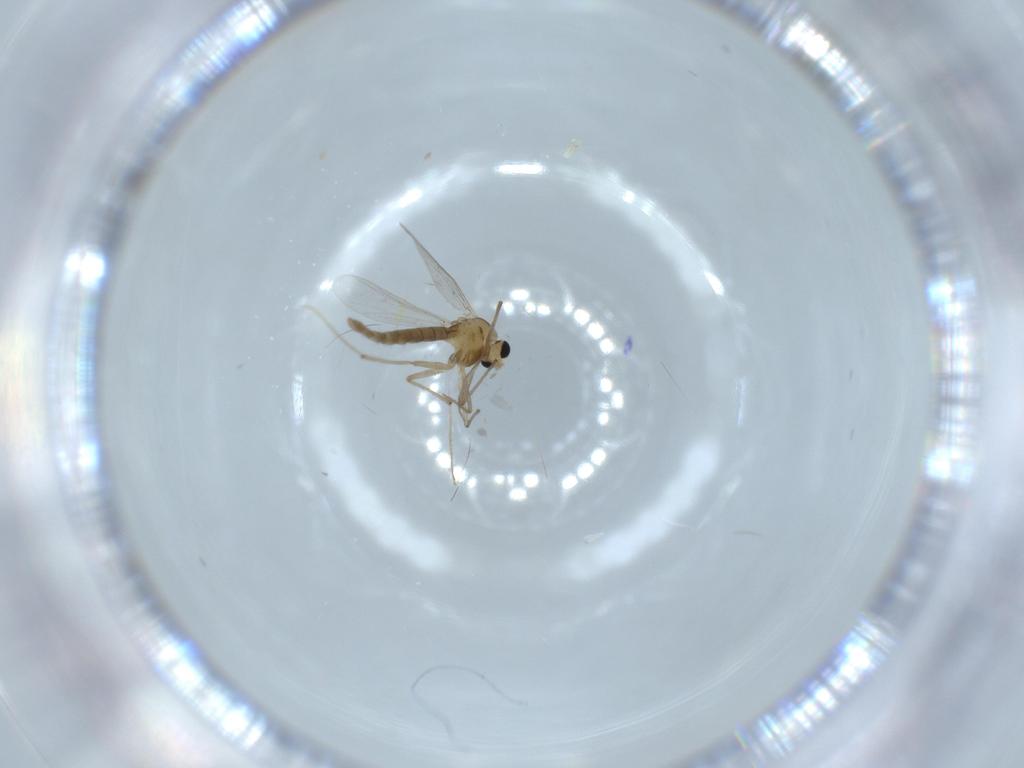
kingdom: Animalia
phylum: Arthropoda
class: Insecta
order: Diptera
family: Chironomidae
